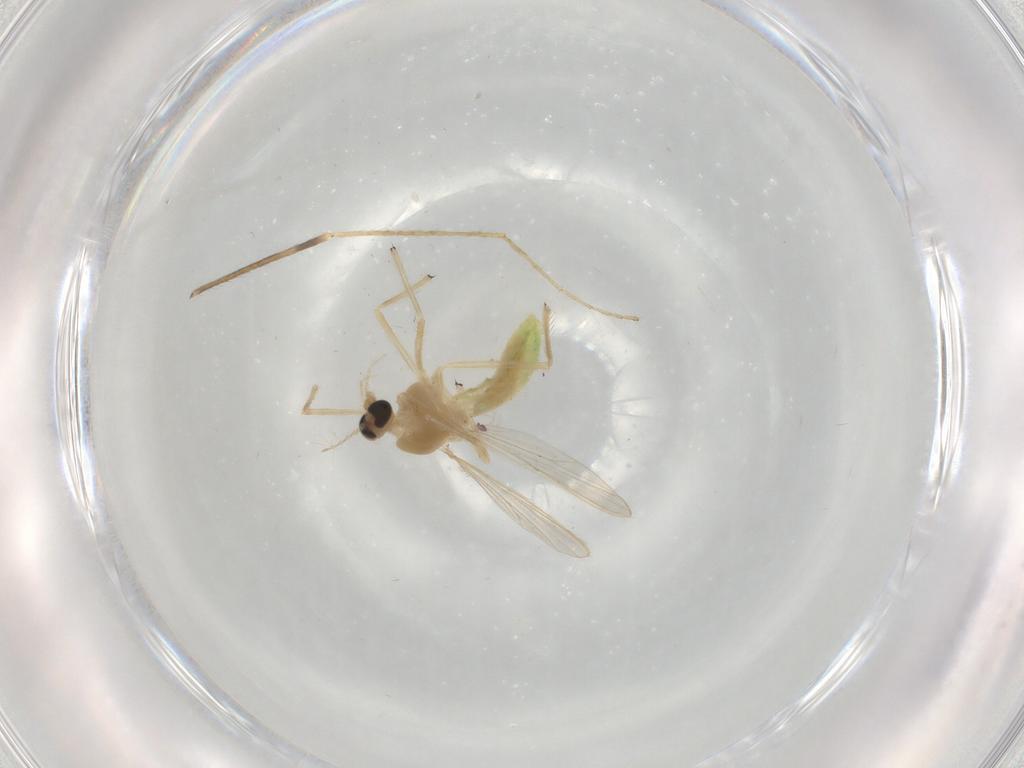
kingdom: Animalia
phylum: Arthropoda
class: Insecta
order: Diptera
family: Chironomidae
